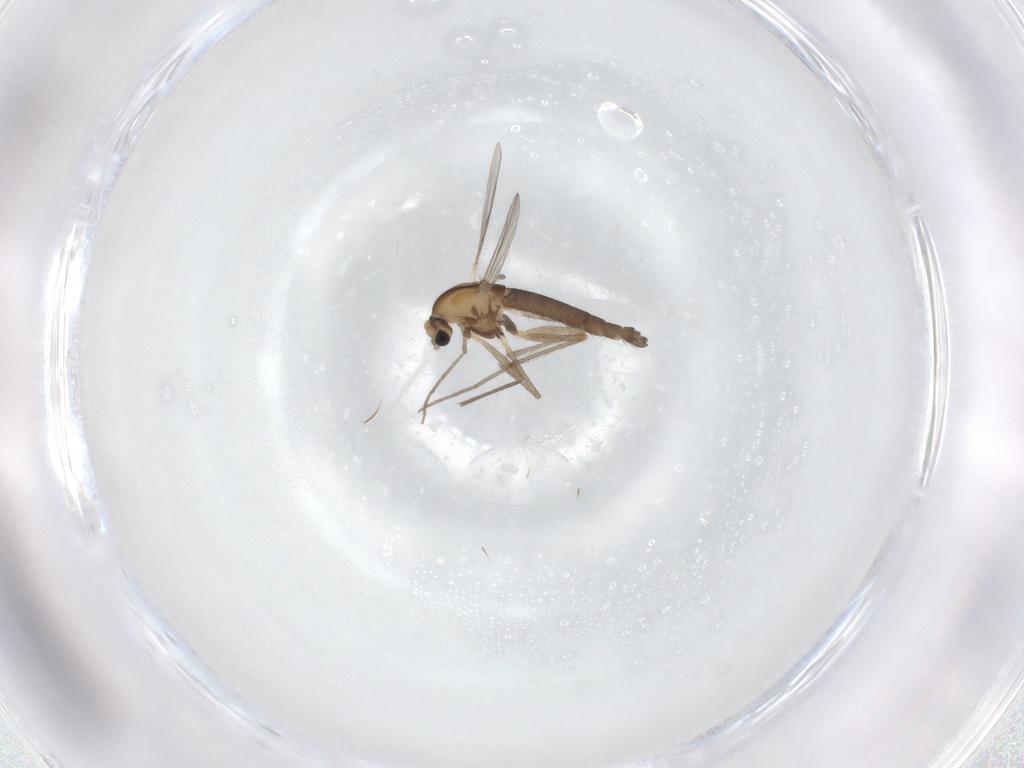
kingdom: Animalia
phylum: Arthropoda
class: Insecta
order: Diptera
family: Chironomidae
